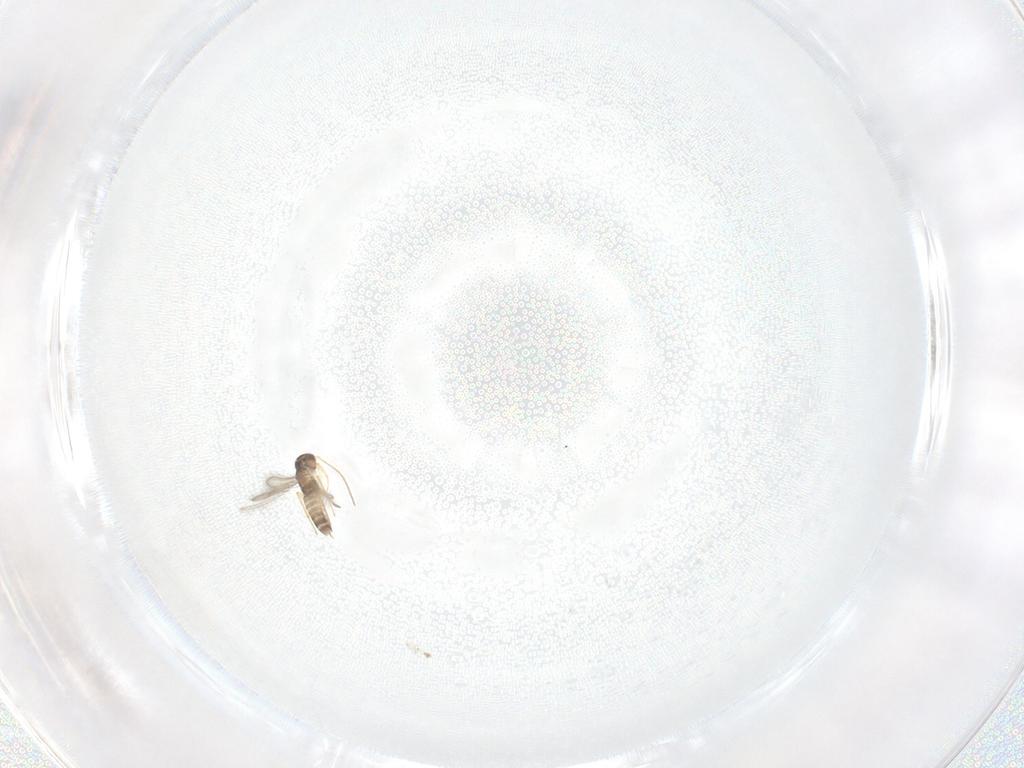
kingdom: Animalia
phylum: Arthropoda
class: Insecta
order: Hymenoptera
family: Mymaridae
